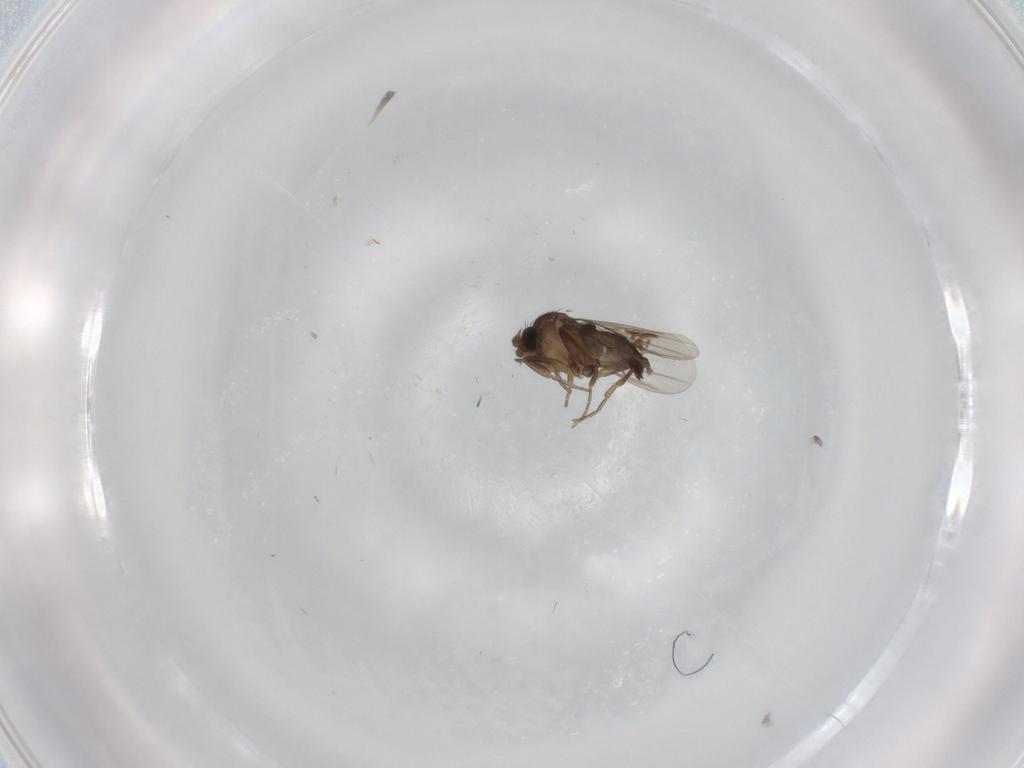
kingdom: Animalia
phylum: Arthropoda
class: Insecta
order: Diptera
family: Phoridae
